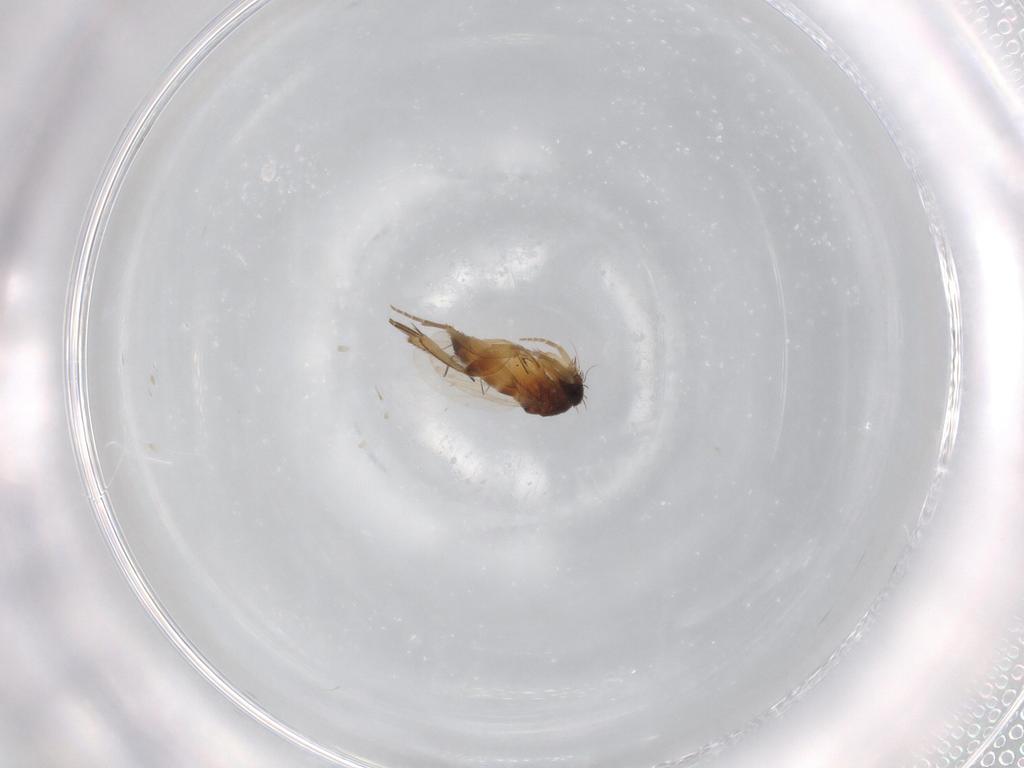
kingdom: Animalia
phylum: Arthropoda
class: Insecta
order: Diptera
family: Phoridae
